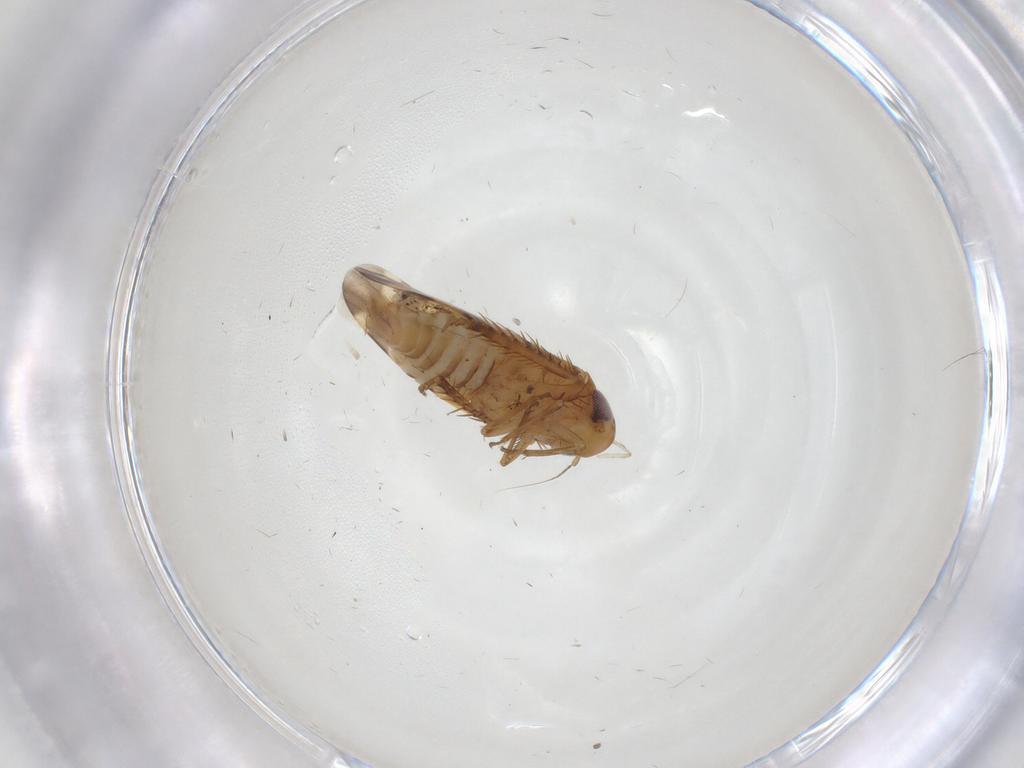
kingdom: Animalia
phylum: Arthropoda
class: Insecta
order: Hemiptera
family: Cicadellidae
